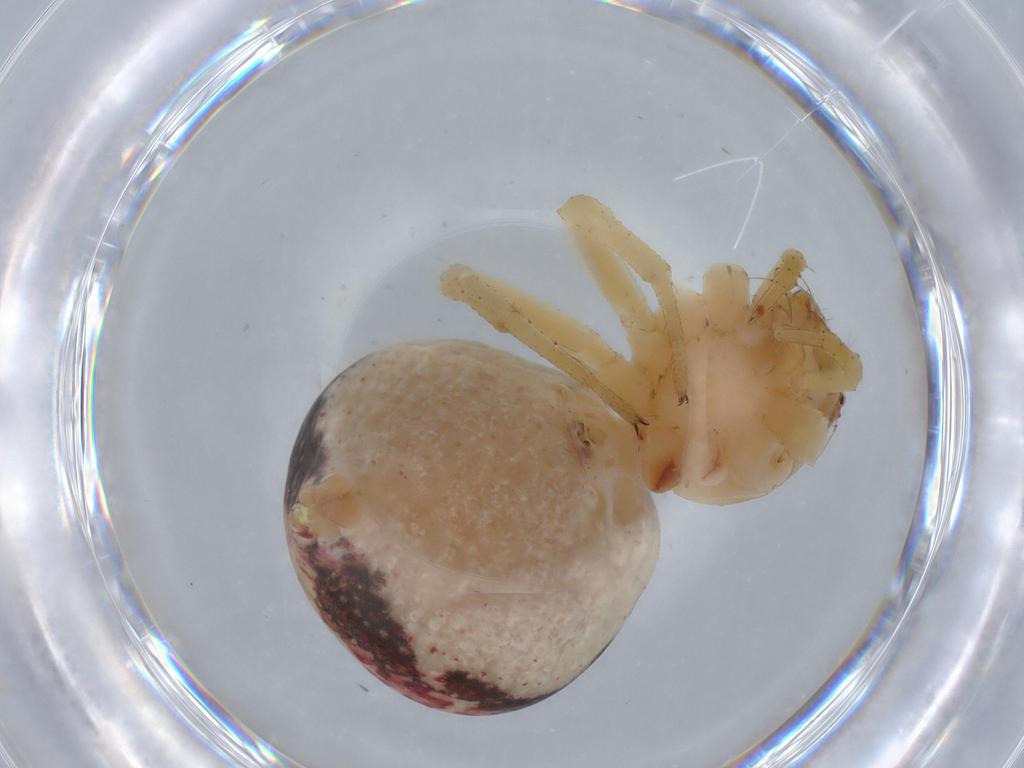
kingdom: Animalia
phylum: Arthropoda
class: Arachnida
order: Araneae
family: Thomisidae
